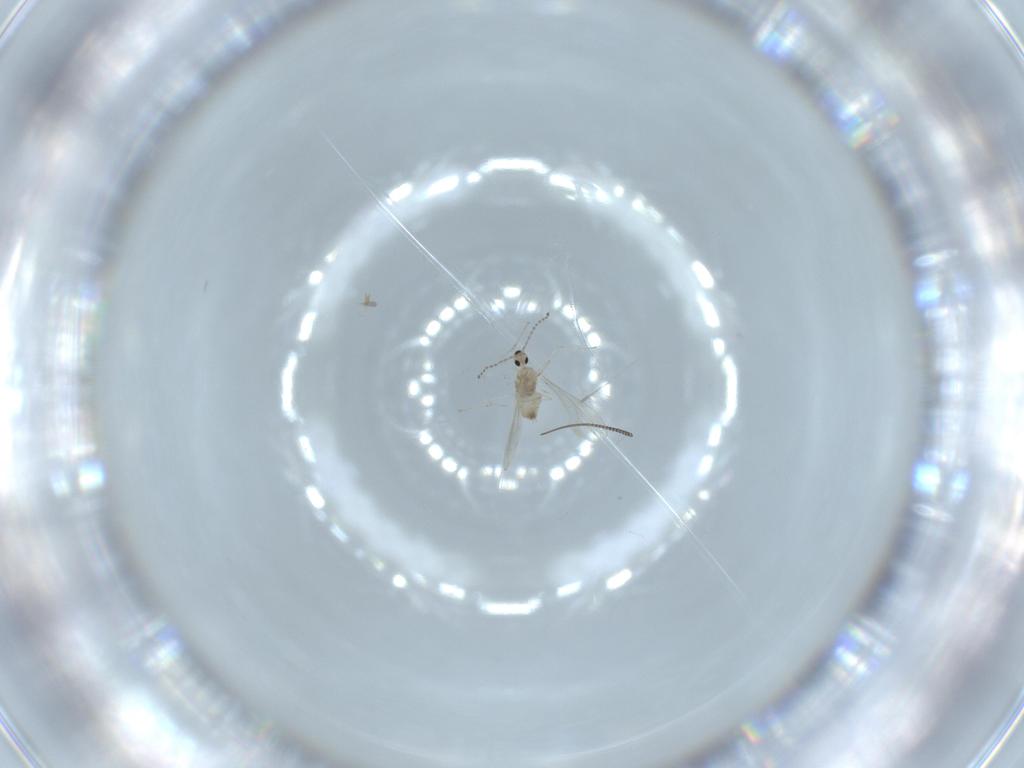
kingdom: Animalia
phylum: Arthropoda
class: Insecta
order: Diptera
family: Cecidomyiidae
